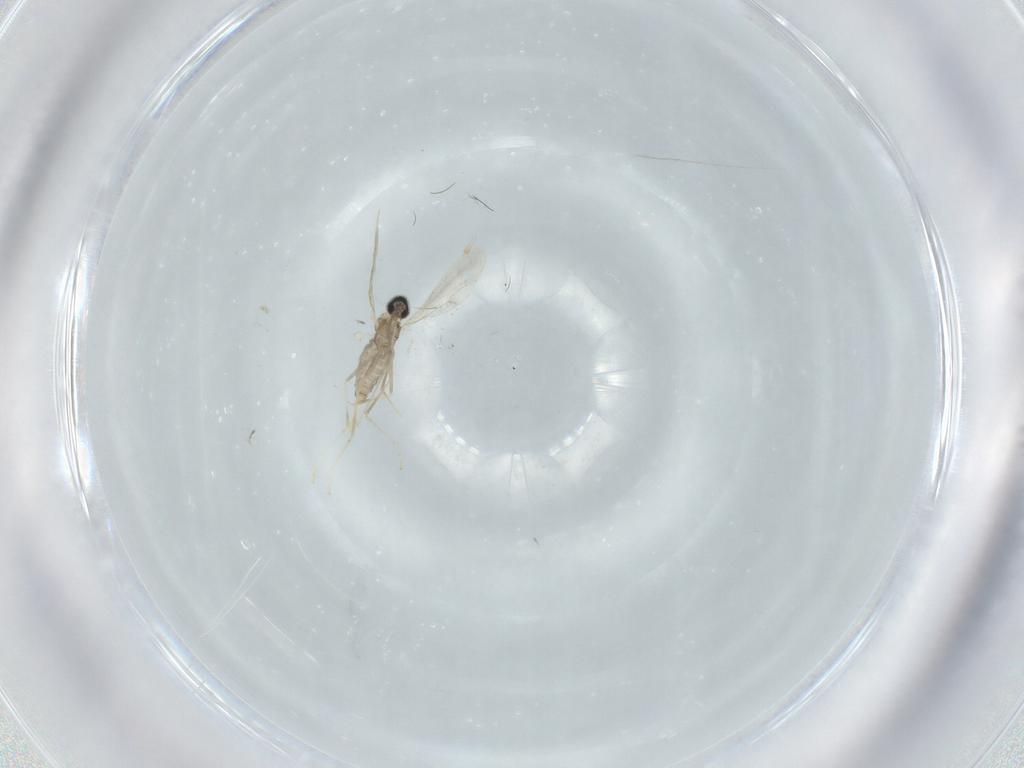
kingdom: Animalia
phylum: Arthropoda
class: Insecta
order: Diptera
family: Cecidomyiidae
